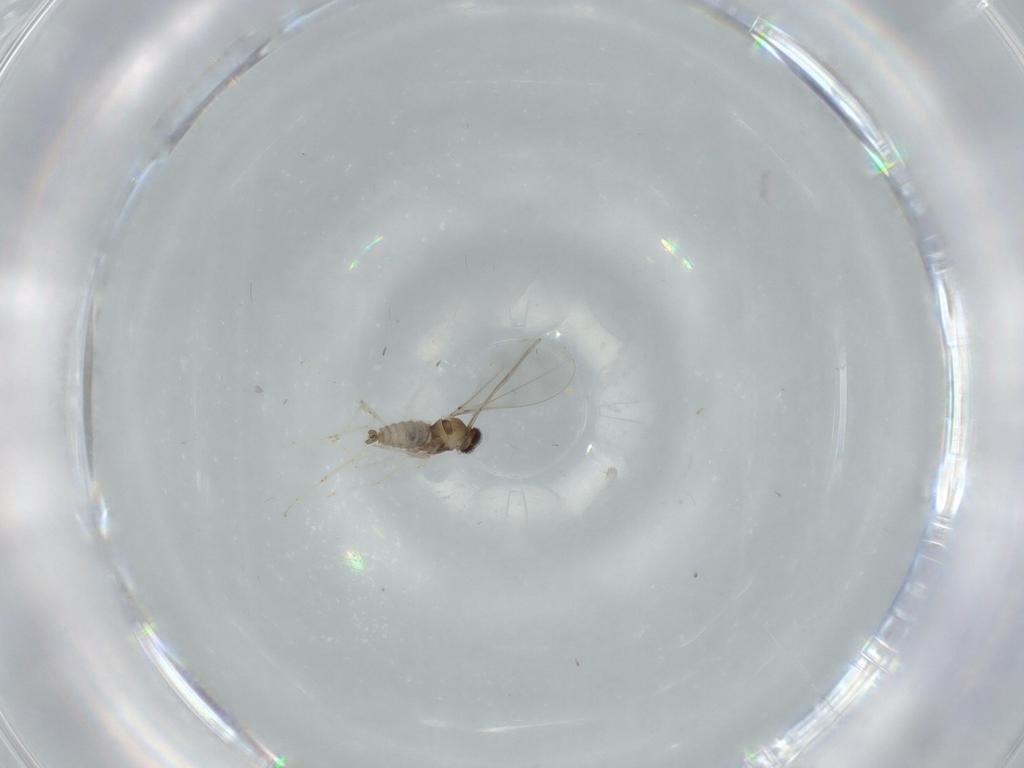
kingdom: Animalia
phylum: Arthropoda
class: Insecta
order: Diptera
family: Cecidomyiidae
